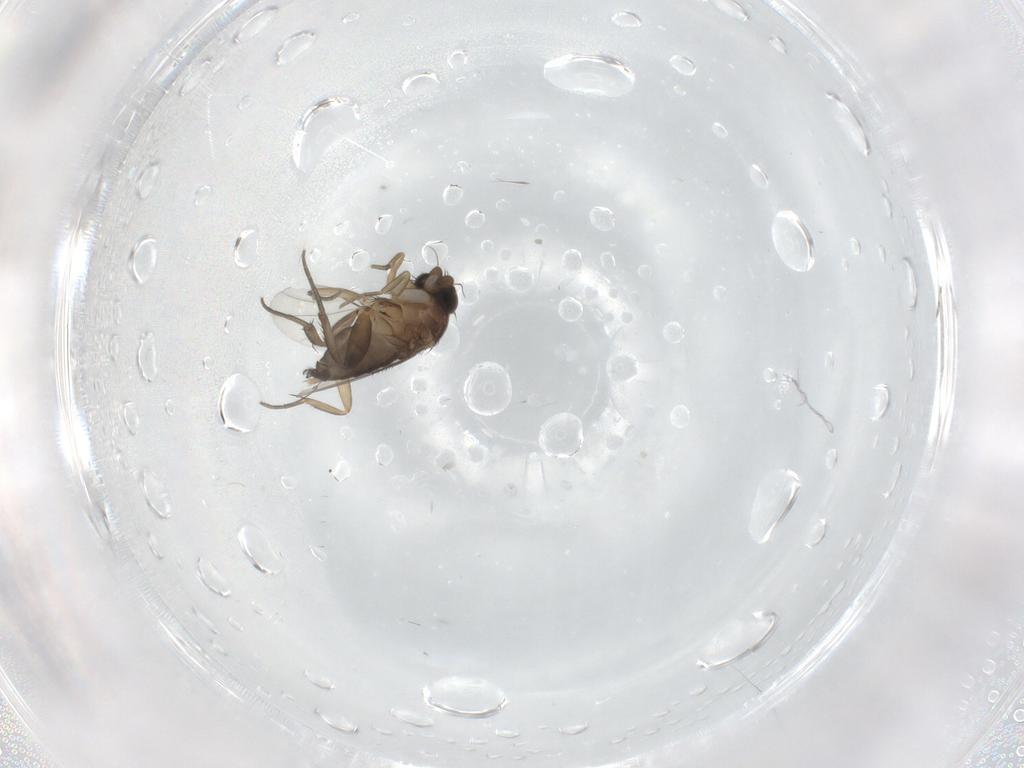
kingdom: Animalia
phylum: Arthropoda
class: Insecta
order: Diptera
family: Phoridae
